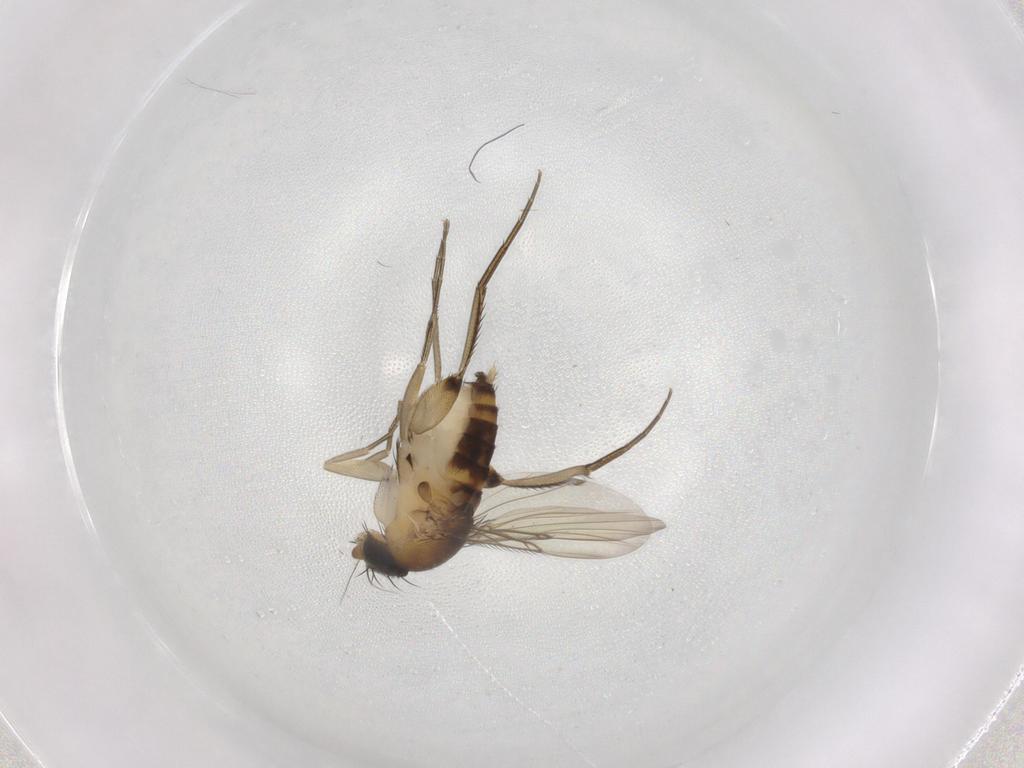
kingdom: Animalia
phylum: Arthropoda
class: Insecta
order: Diptera
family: Phoridae
